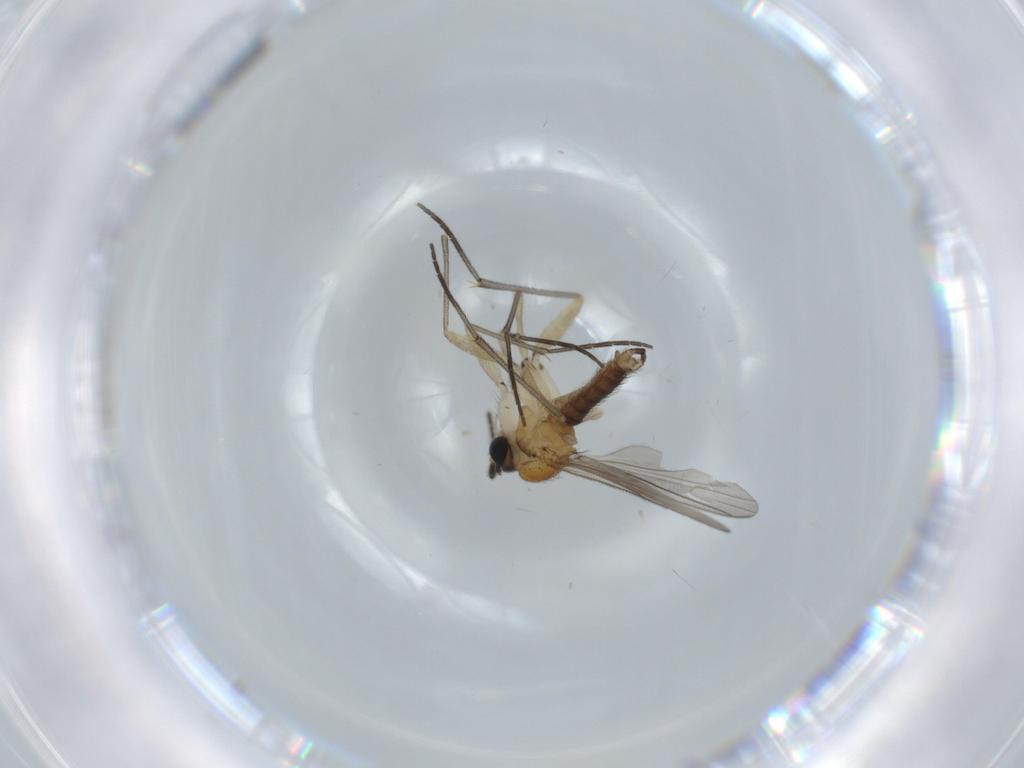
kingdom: Animalia
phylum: Arthropoda
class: Insecta
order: Diptera
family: Sciaridae
